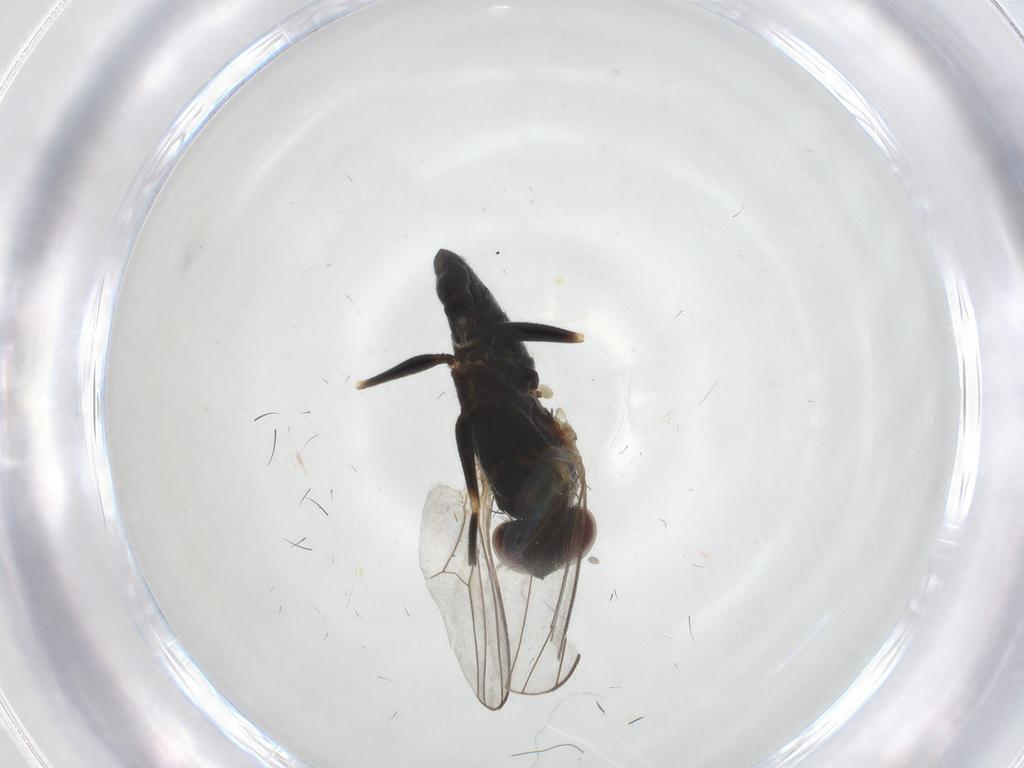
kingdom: Animalia
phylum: Arthropoda
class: Insecta
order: Diptera
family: Dolichopodidae
